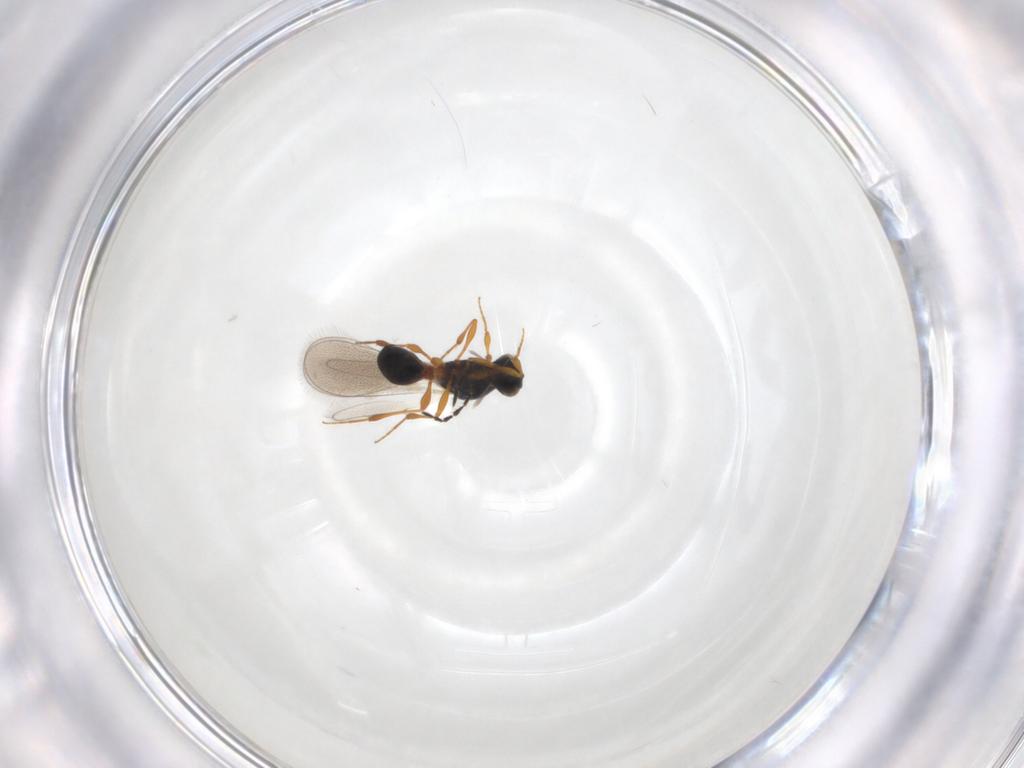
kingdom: Animalia
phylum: Arthropoda
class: Insecta
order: Hymenoptera
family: Platygastridae
